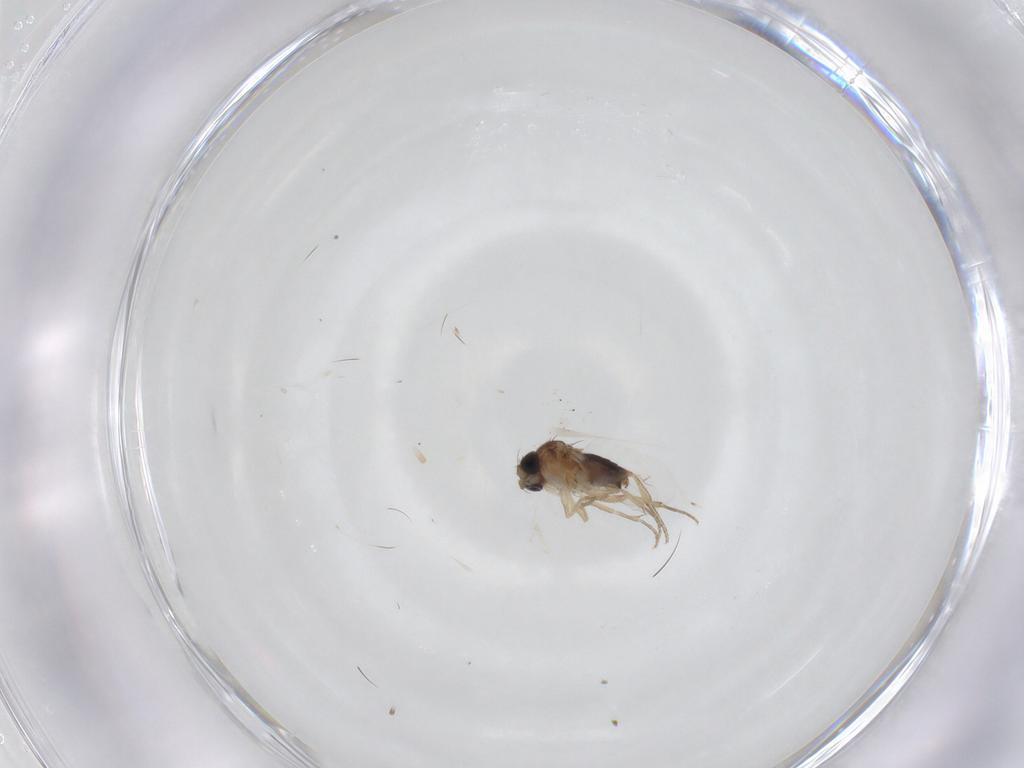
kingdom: Animalia
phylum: Arthropoda
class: Insecta
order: Diptera
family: Phoridae
